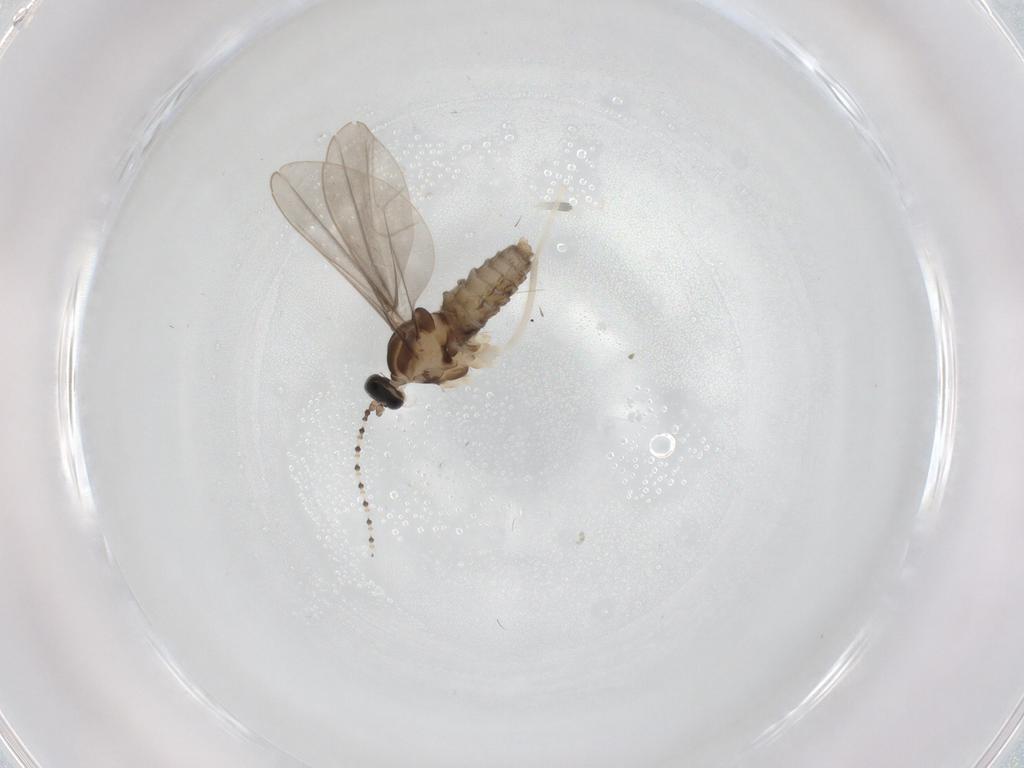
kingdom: Animalia
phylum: Arthropoda
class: Insecta
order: Diptera
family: Cecidomyiidae
